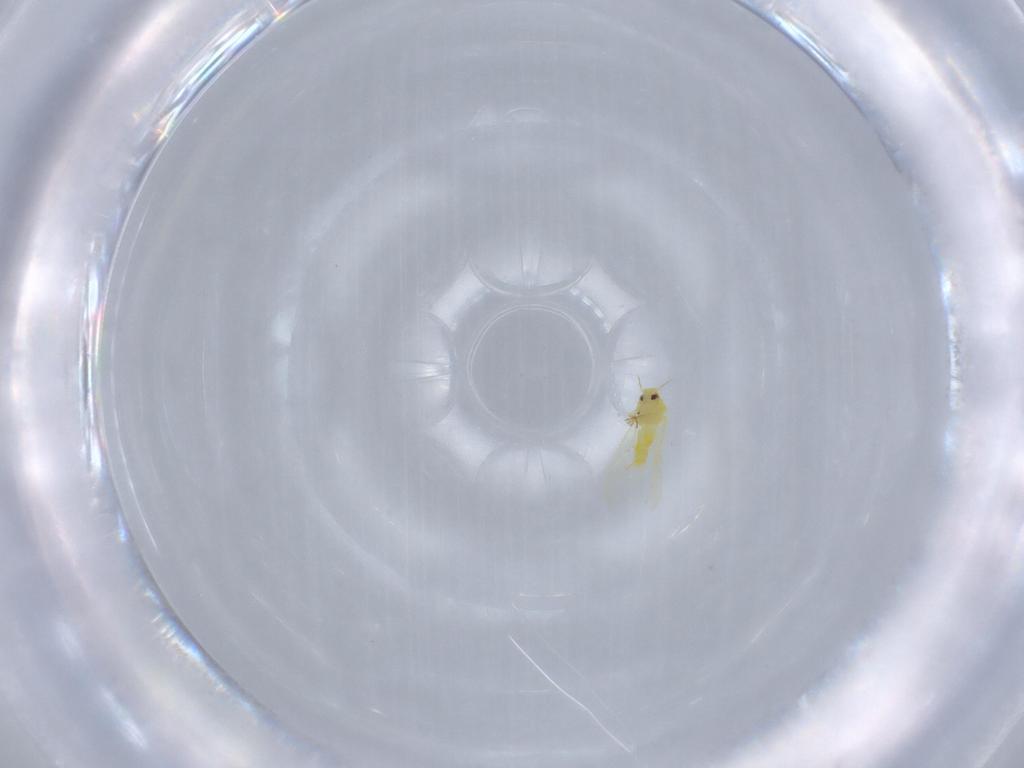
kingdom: Animalia
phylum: Arthropoda
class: Insecta
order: Hemiptera
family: Aleyrodidae
